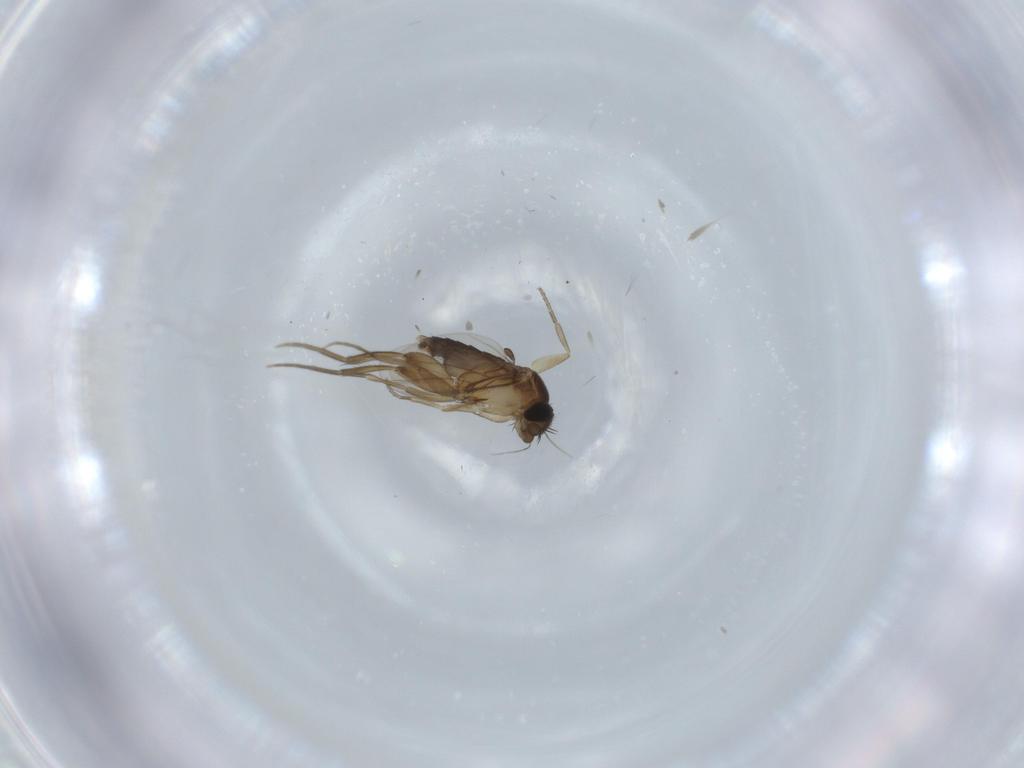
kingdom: Animalia
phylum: Arthropoda
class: Insecta
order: Diptera
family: Phoridae
